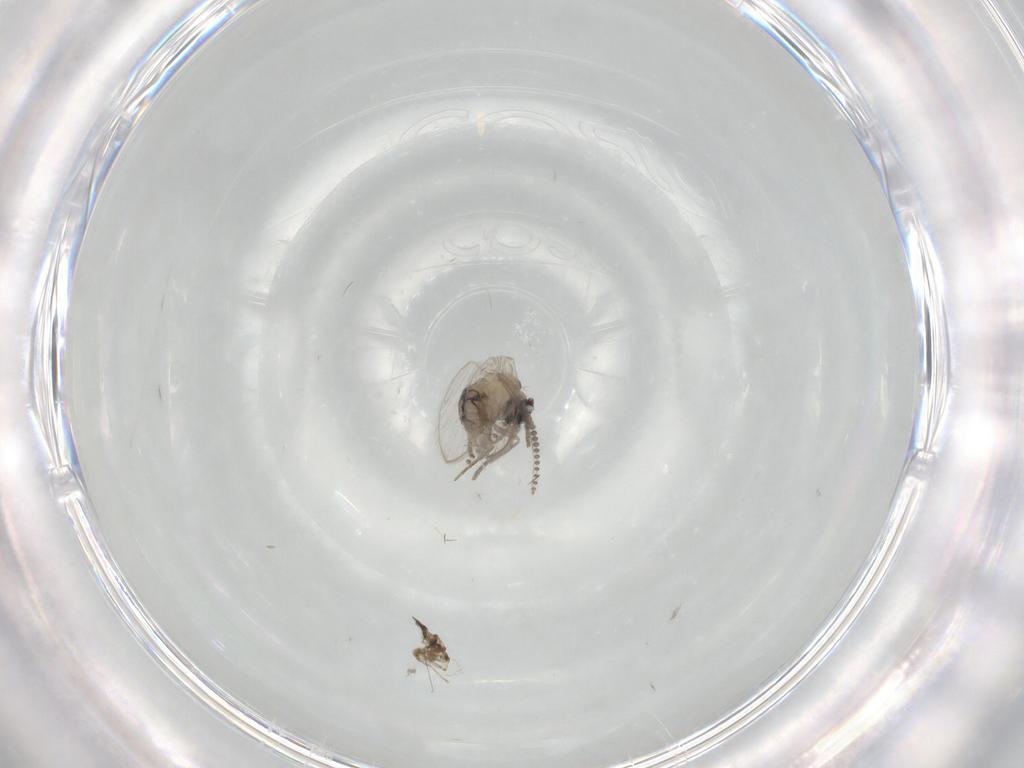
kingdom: Animalia
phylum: Arthropoda
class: Insecta
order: Diptera
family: Psychodidae
